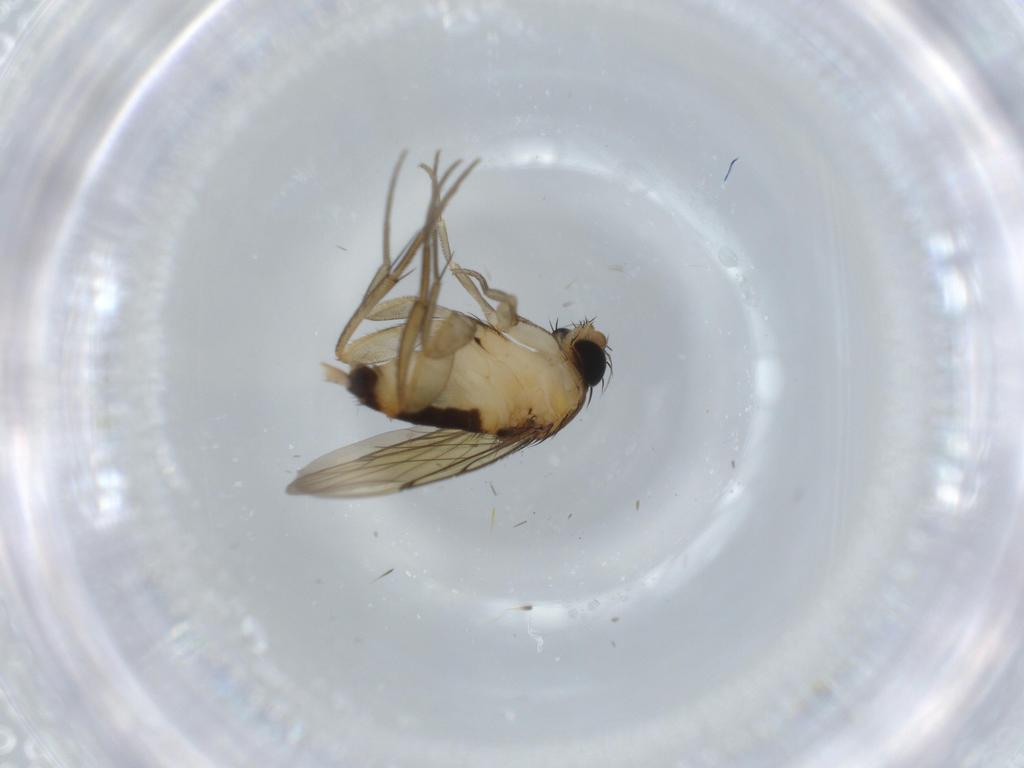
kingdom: Animalia
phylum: Arthropoda
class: Insecta
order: Diptera
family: Phoridae
